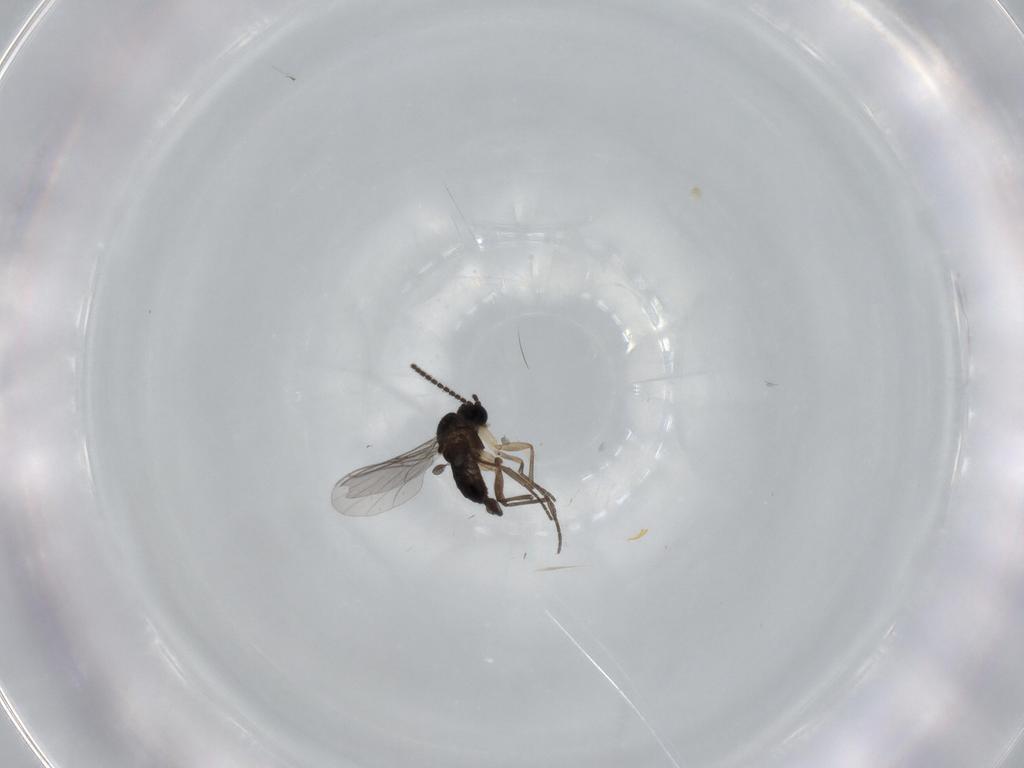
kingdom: Animalia
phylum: Arthropoda
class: Insecta
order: Diptera
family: Sciaridae
